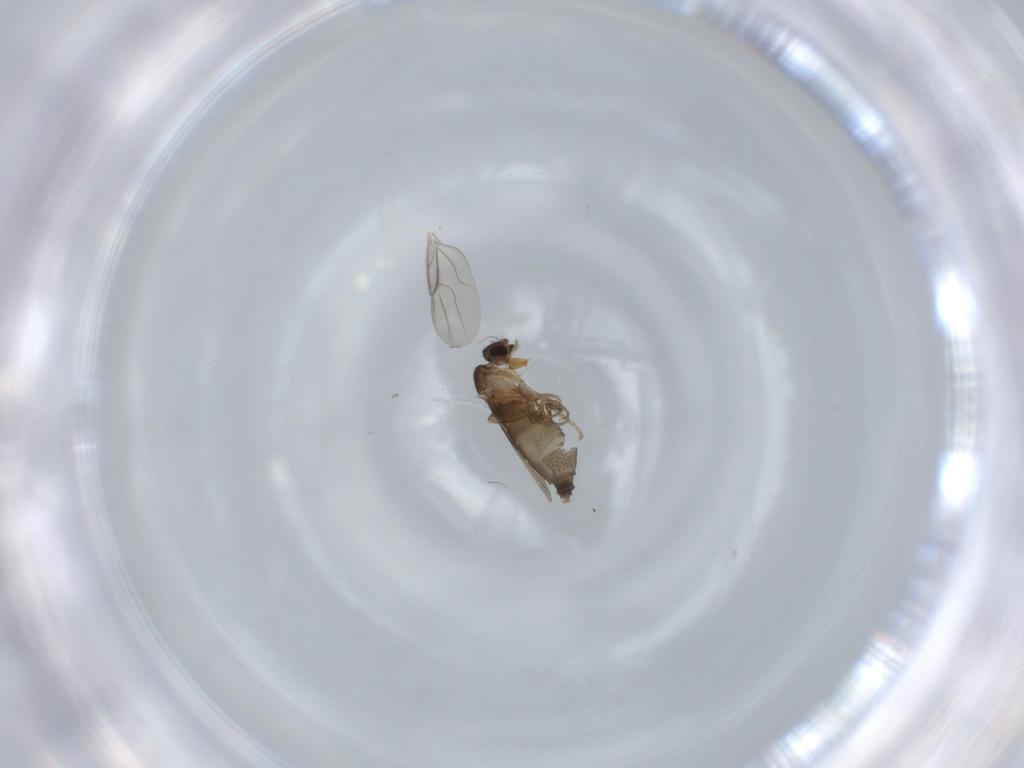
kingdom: Animalia
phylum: Arthropoda
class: Insecta
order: Diptera
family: Phoridae
